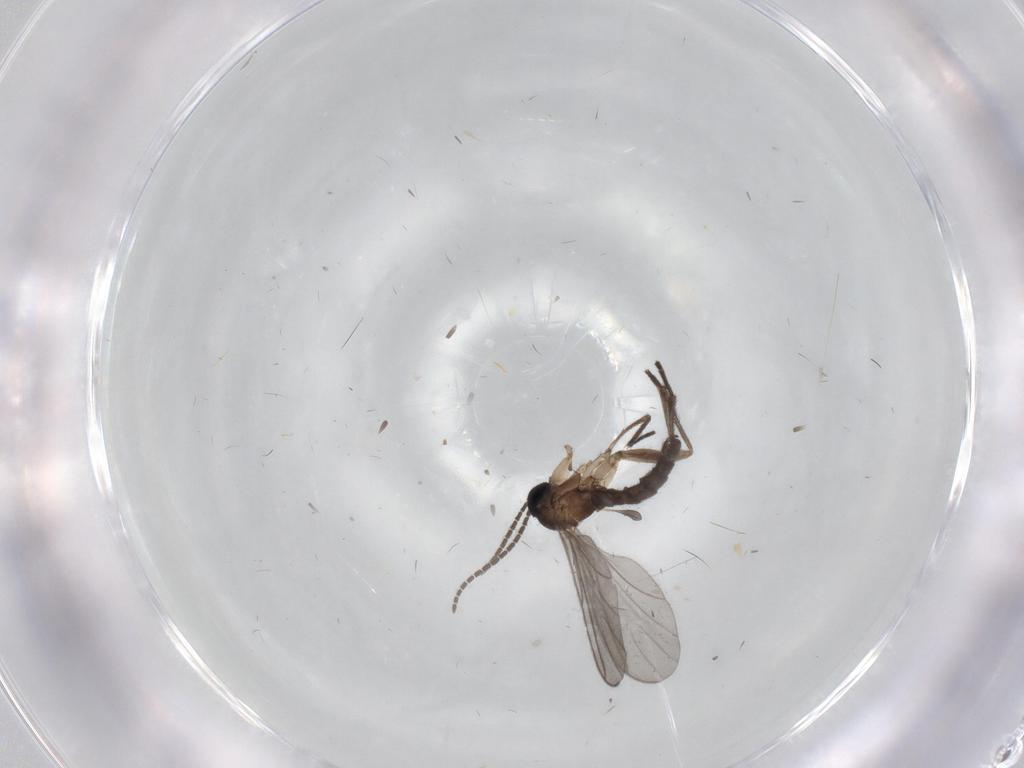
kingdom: Animalia
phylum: Arthropoda
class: Insecta
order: Diptera
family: Sciaridae
